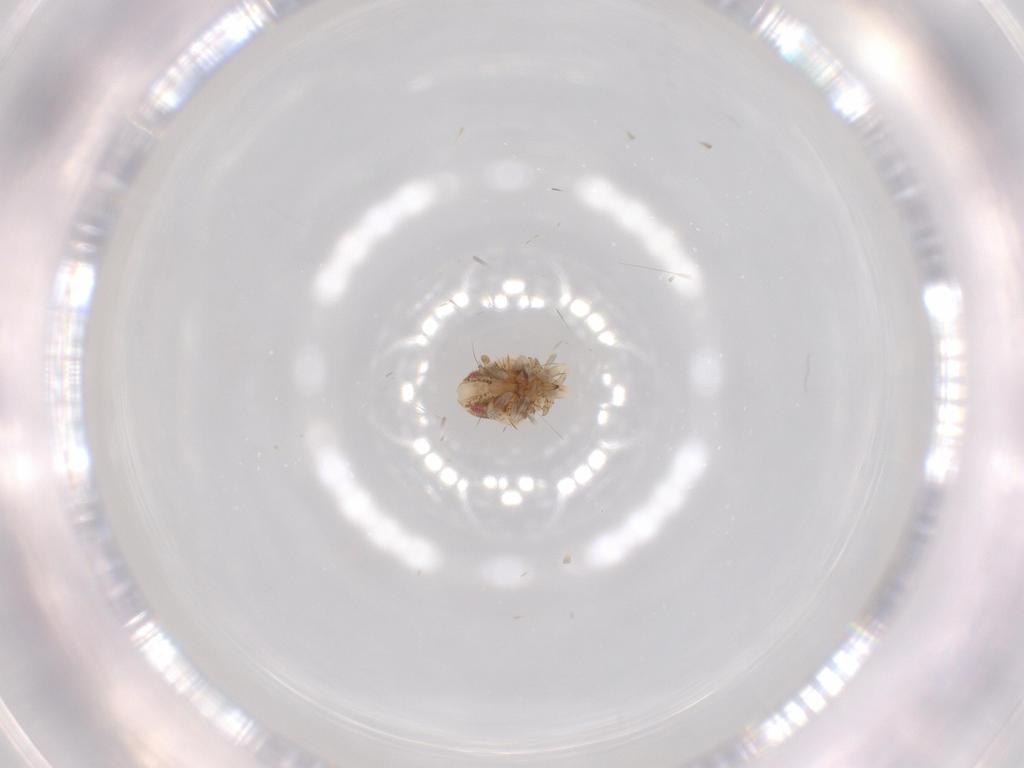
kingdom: Animalia
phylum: Arthropoda
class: Insecta
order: Hemiptera
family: Acanaloniidae
